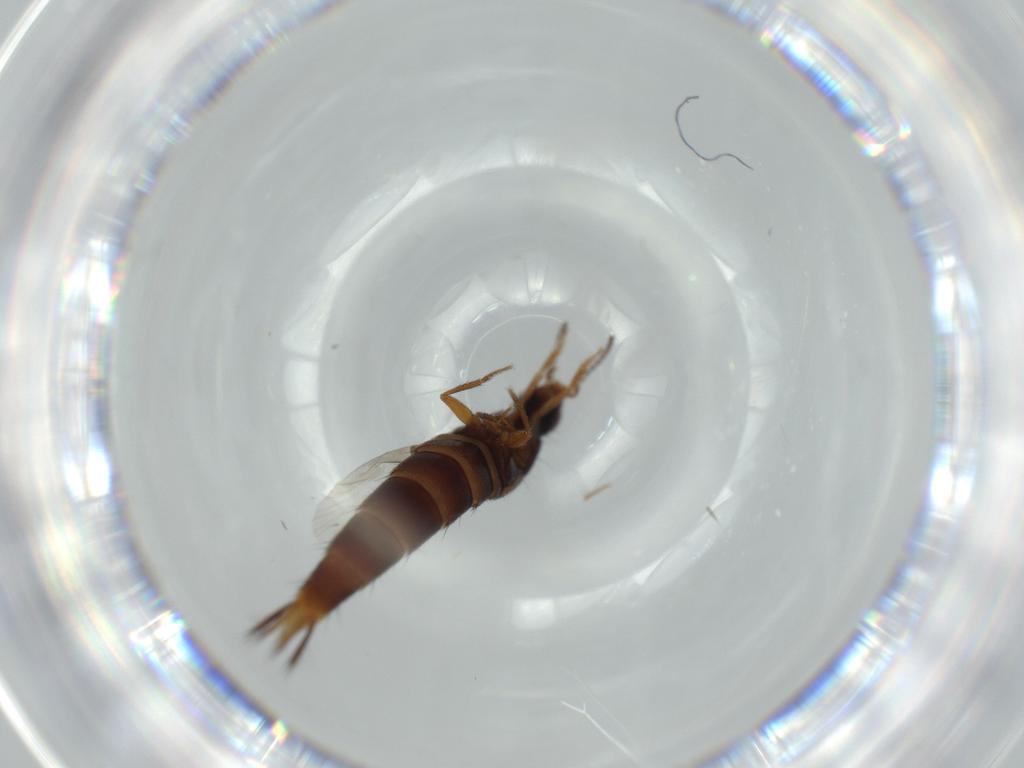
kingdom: Animalia
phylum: Arthropoda
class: Insecta
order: Coleoptera
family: Staphylinidae
